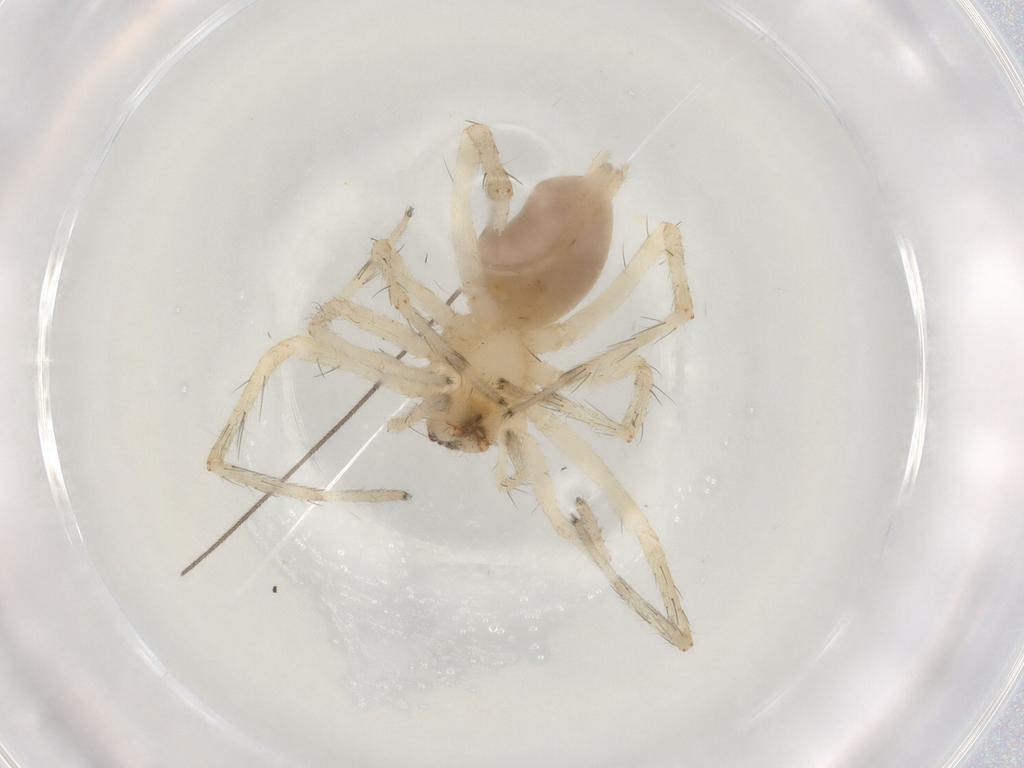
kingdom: Animalia
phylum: Arthropoda
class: Arachnida
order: Araneae
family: Anyphaenidae
